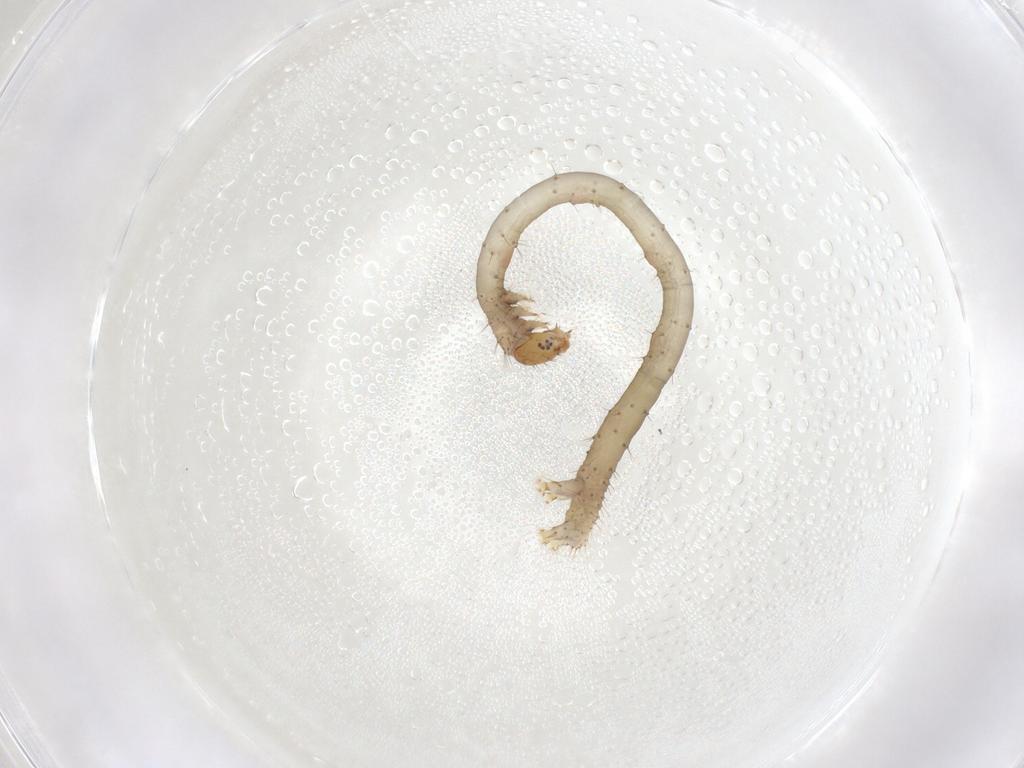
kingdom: Animalia
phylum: Arthropoda
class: Insecta
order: Lepidoptera
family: Geometridae
